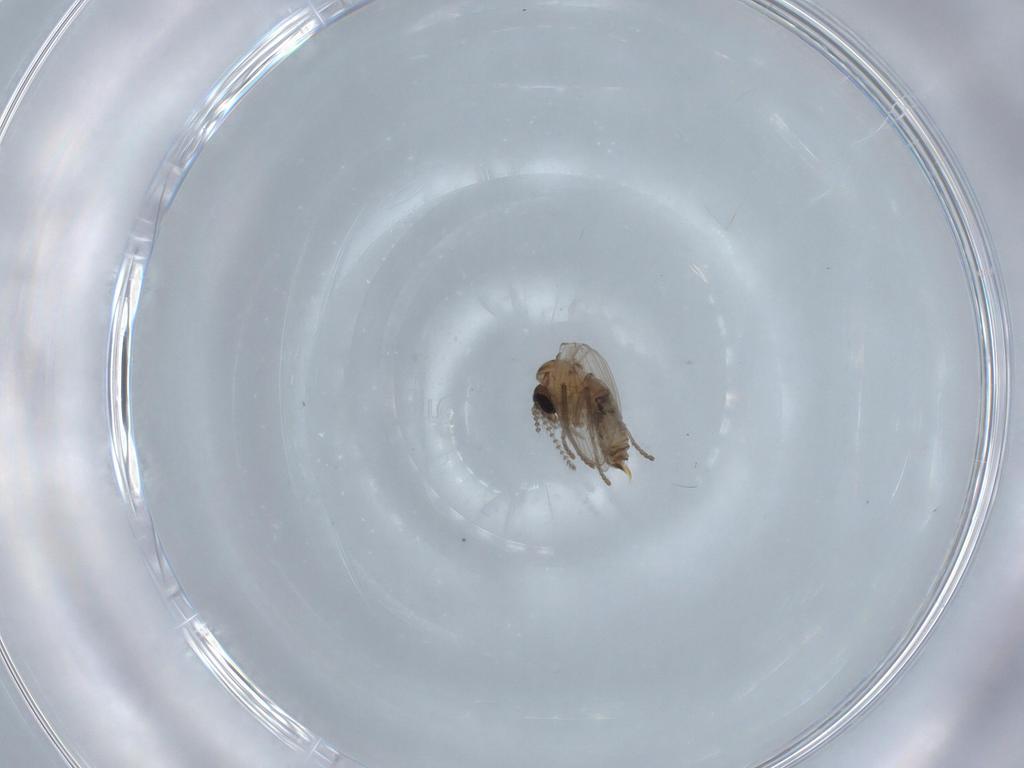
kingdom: Animalia
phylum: Arthropoda
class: Insecta
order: Diptera
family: Psychodidae
